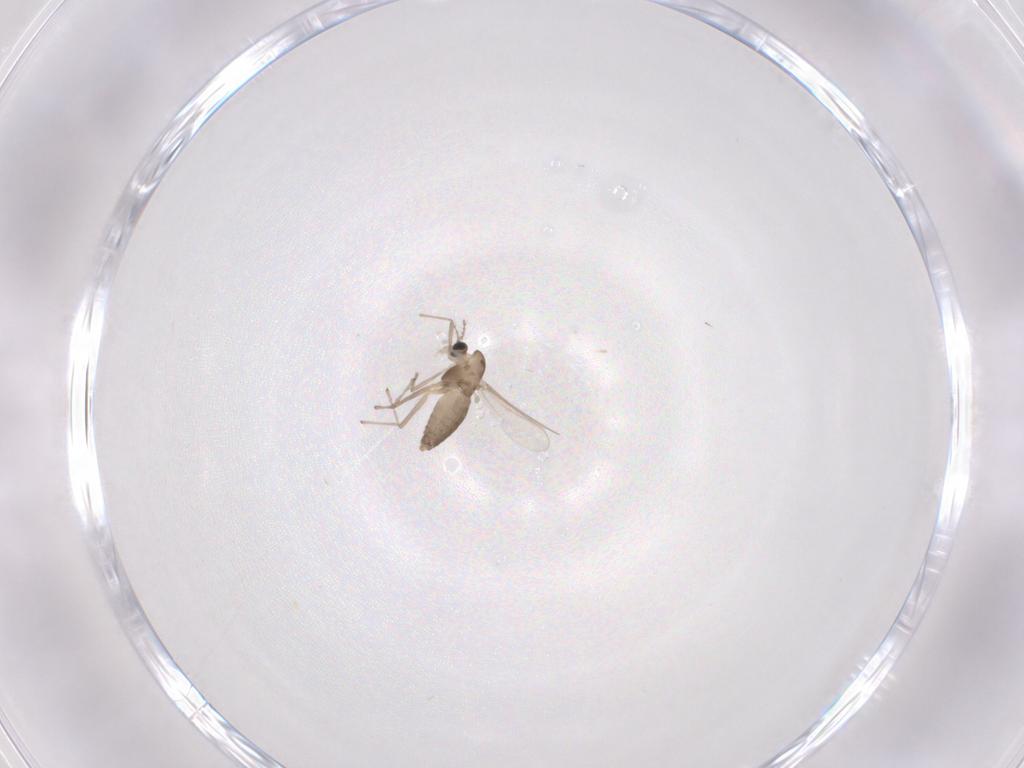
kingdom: Animalia
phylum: Arthropoda
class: Insecta
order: Diptera
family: Chironomidae
